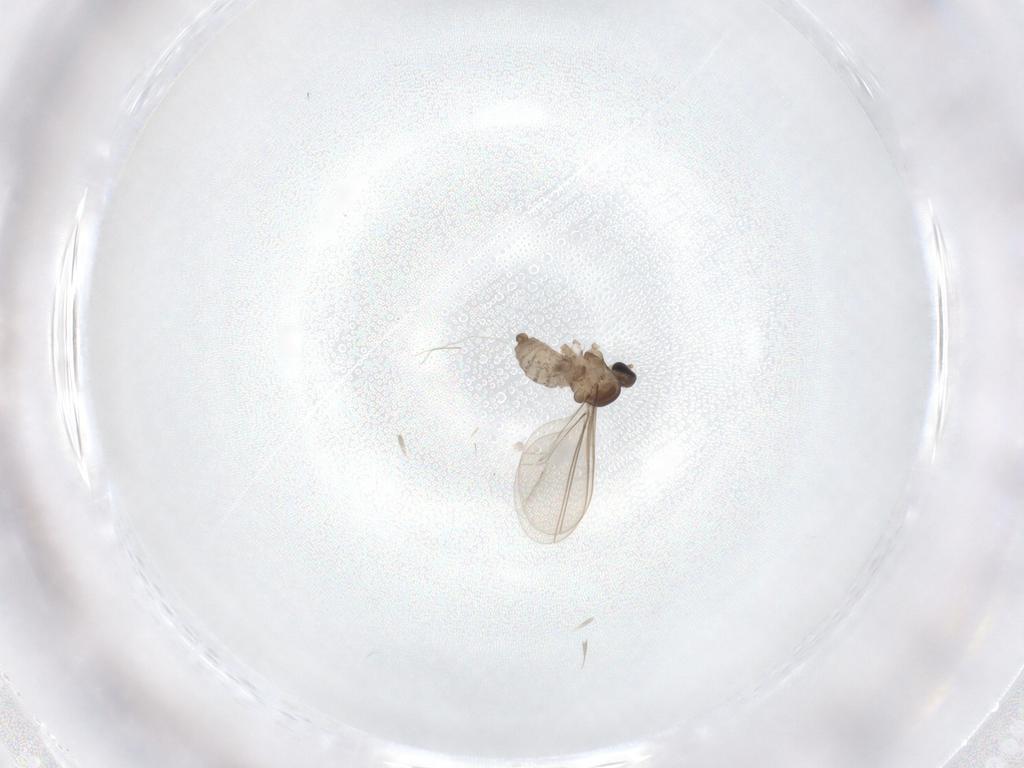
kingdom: Animalia
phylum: Arthropoda
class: Insecta
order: Diptera
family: Cecidomyiidae
